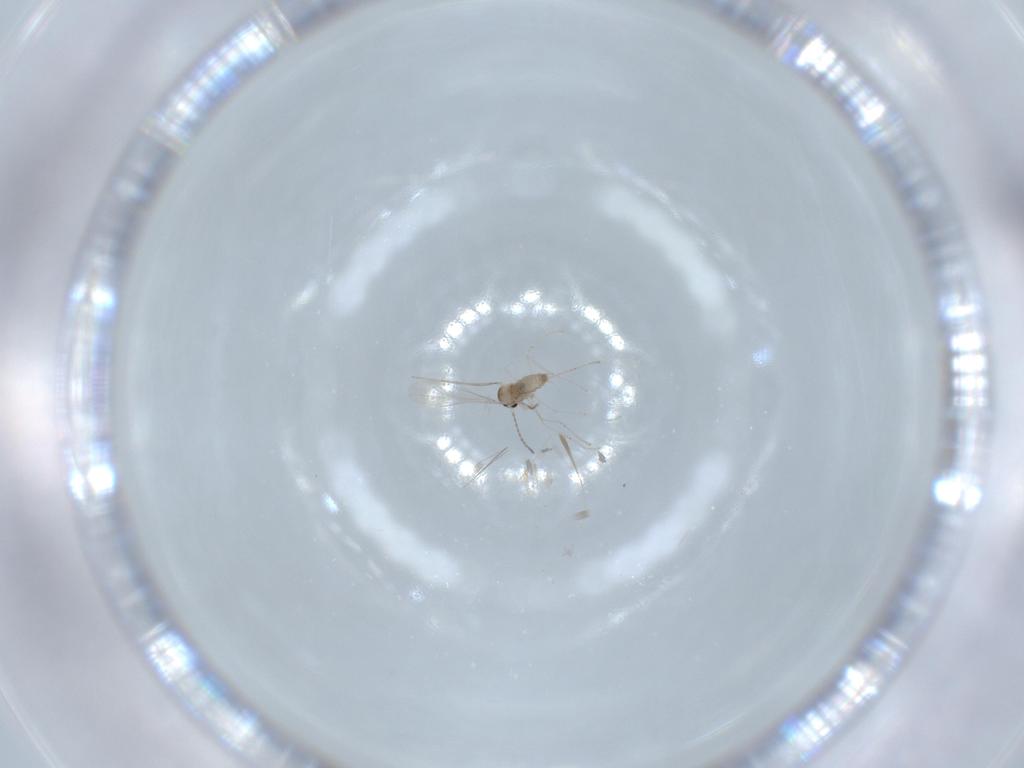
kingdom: Animalia
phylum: Arthropoda
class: Insecta
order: Diptera
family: Cecidomyiidae
